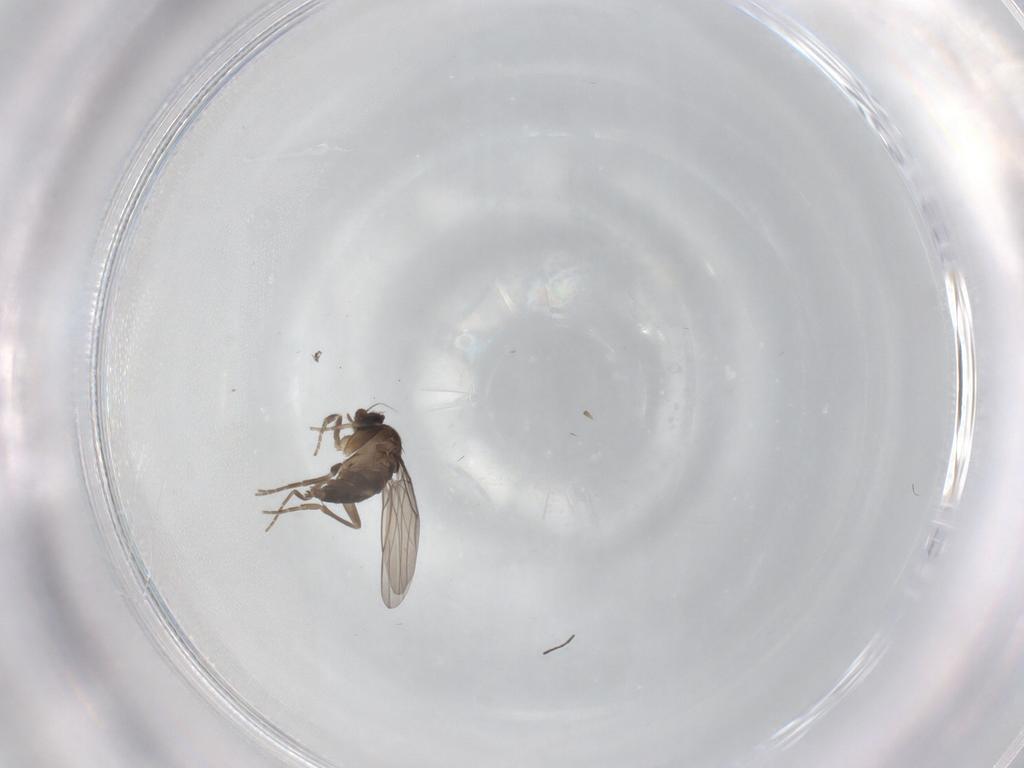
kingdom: Animalia
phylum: Arthropoda
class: Insecta
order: Diptera
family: Phoridae
